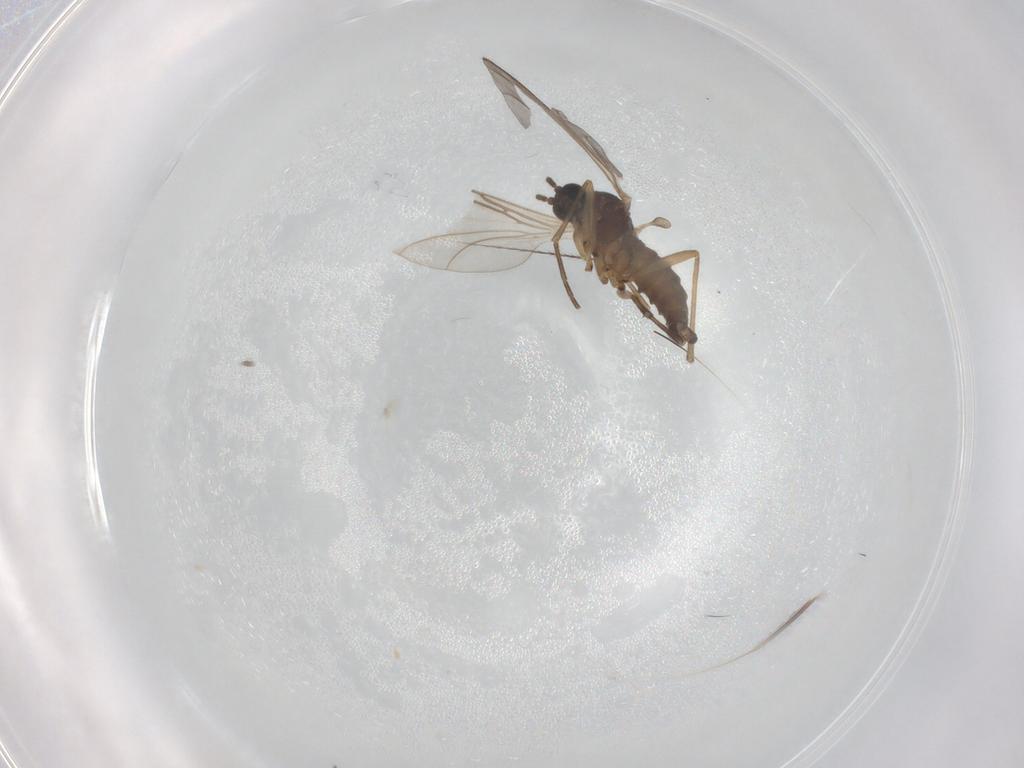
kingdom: Animalia
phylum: Arthropoda
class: Insecta
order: Diptera
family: Sciaridae
